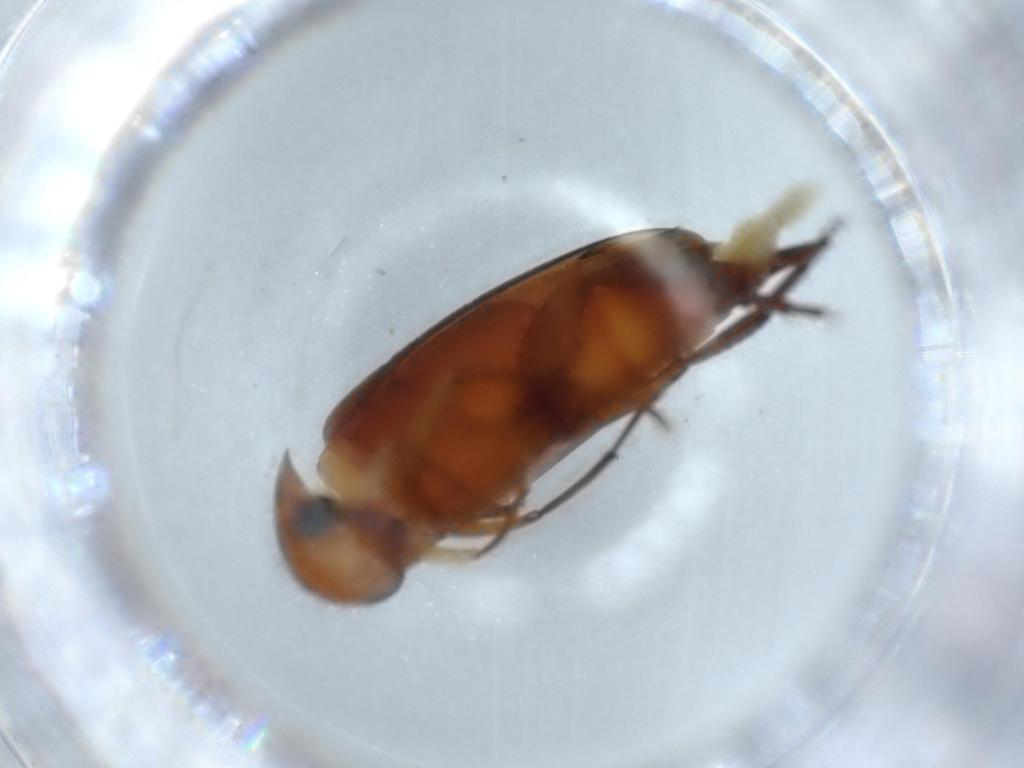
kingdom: Animalia
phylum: Arthropoda
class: Insecta
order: Coleoptera
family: Mordellidae
